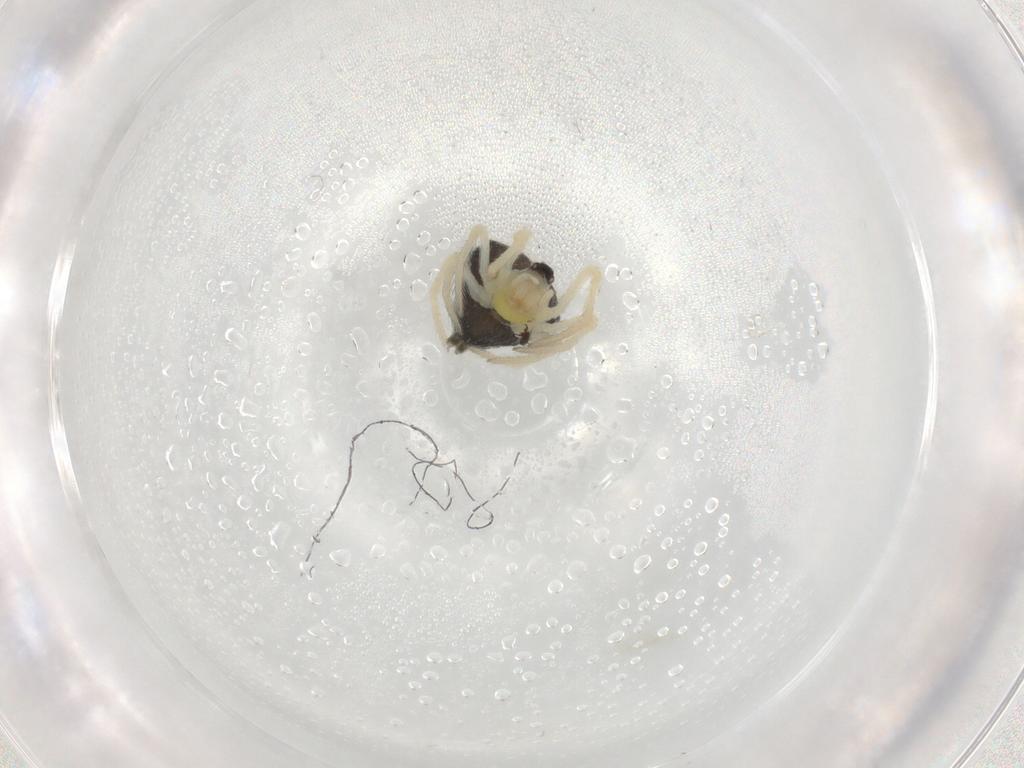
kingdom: Animalia
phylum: Arthropoda
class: Arachnida
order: Araneae
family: Theridiidae
